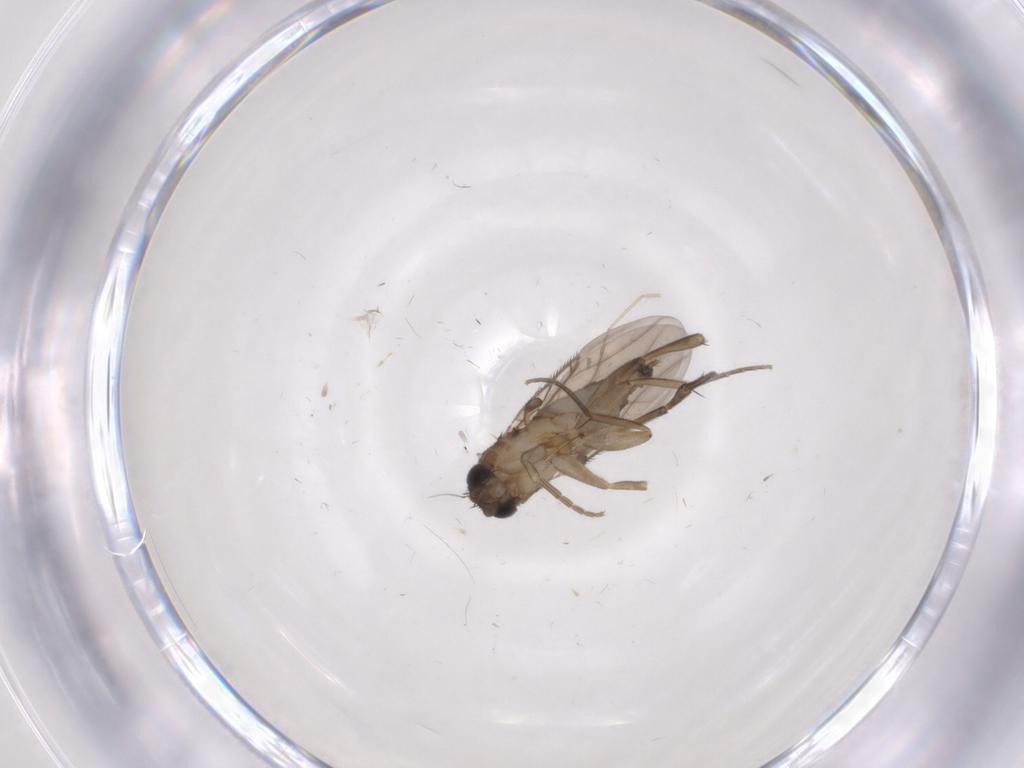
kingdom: Animalia
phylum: Arthropoda
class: Insecta
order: Diptera
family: Phoridae
